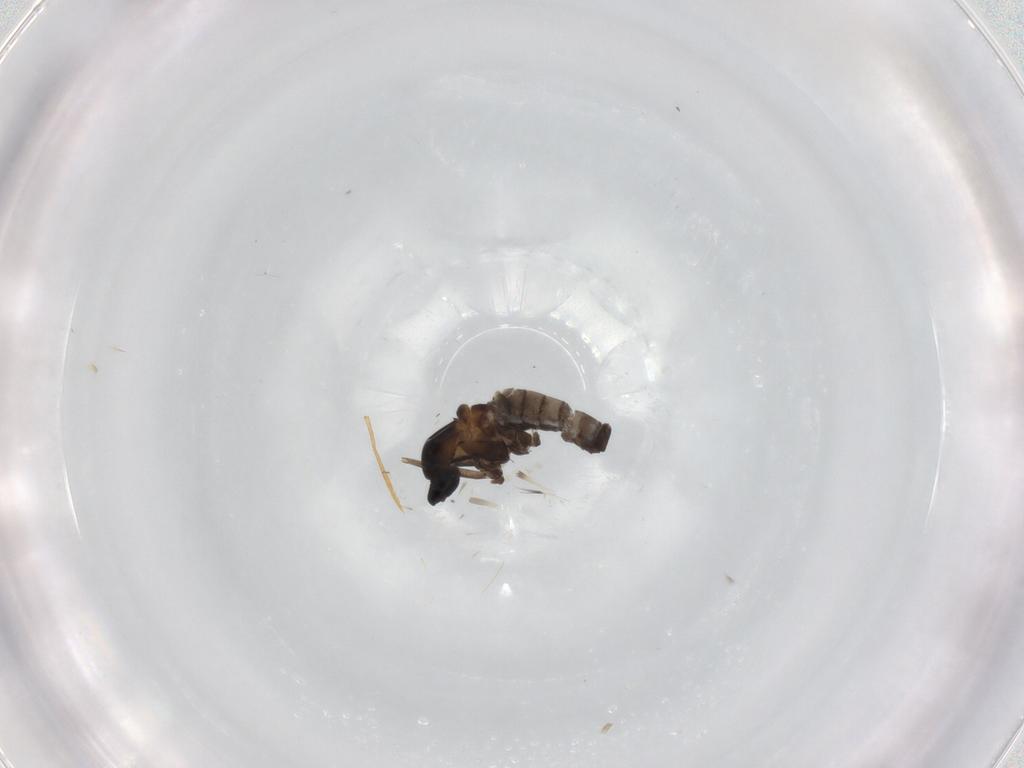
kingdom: Animalia
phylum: Arthropoda
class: Insecta
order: Diptera
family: Cecidomyiidae
